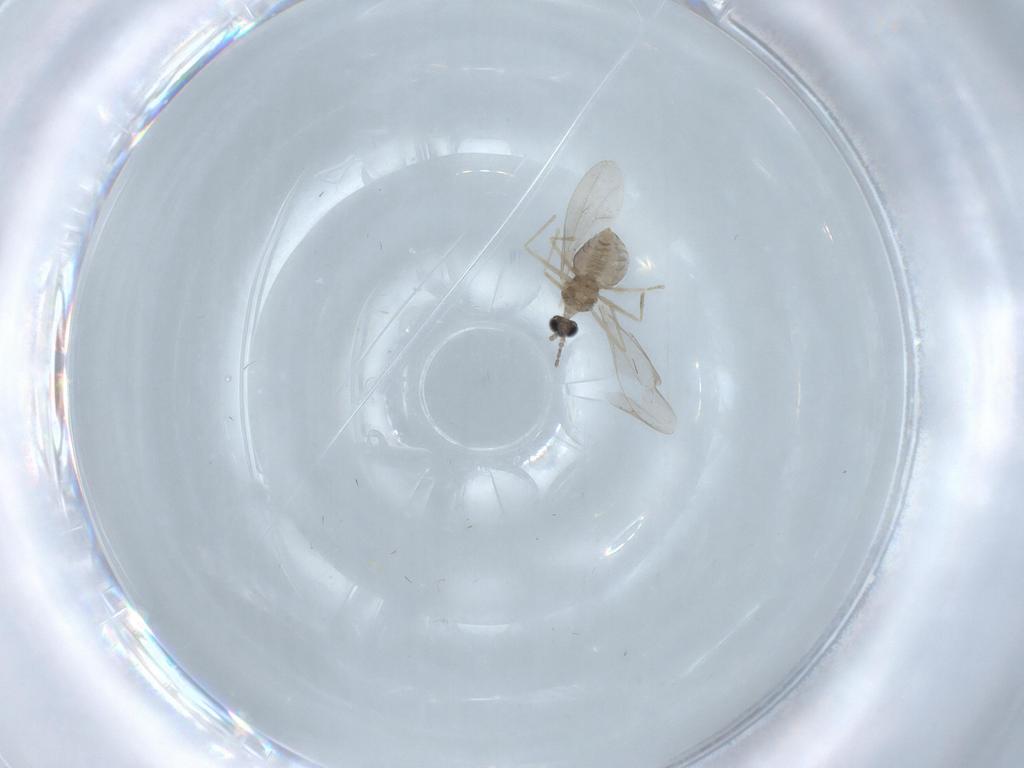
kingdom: Animalia
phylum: Arthropoda
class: Insecta
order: Diptera
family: Cecidomyiidae
